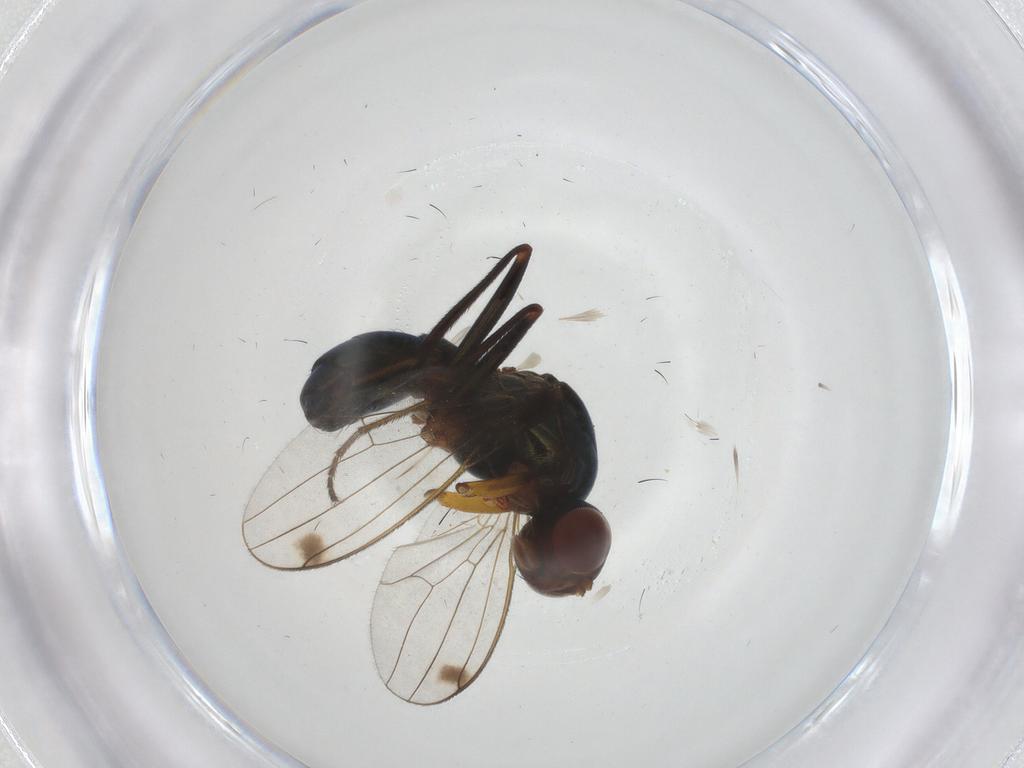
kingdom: Animalia
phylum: Arthropoda
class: Insecta
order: Diptera
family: Sepsidae
